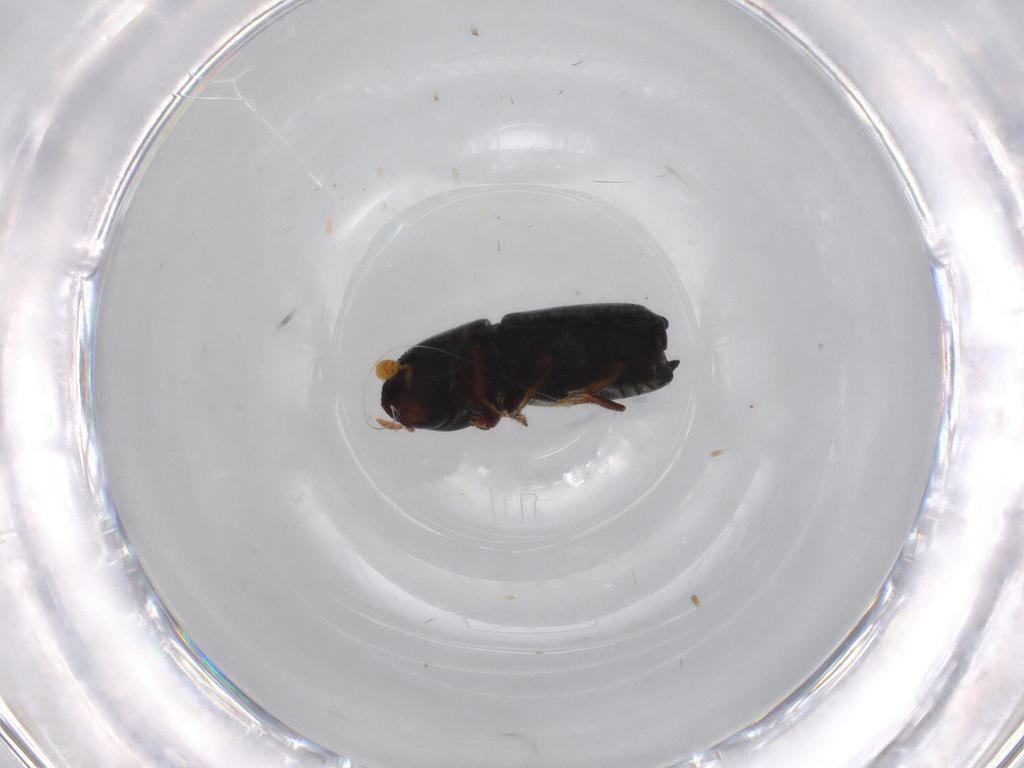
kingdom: Animalia
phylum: Arthropoda
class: Insecta
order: Coleoptera
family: Curculionidae
